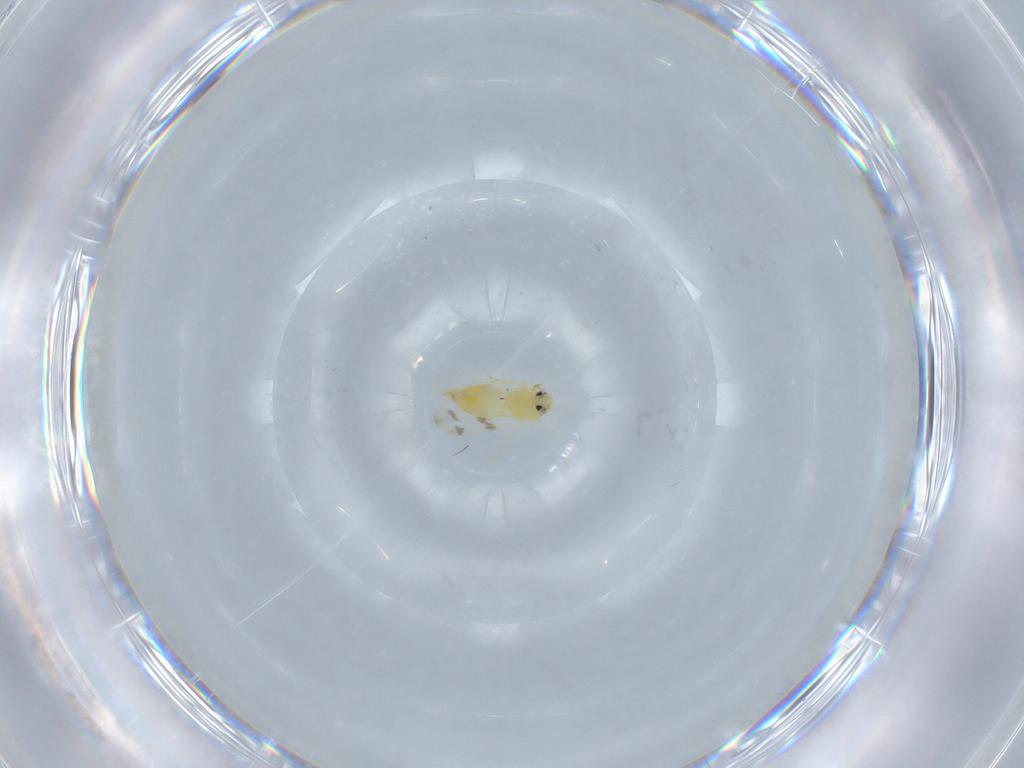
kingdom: Animalia
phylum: Arthropoda
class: Insecta
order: Hemiptera
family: Aleyrodidae
